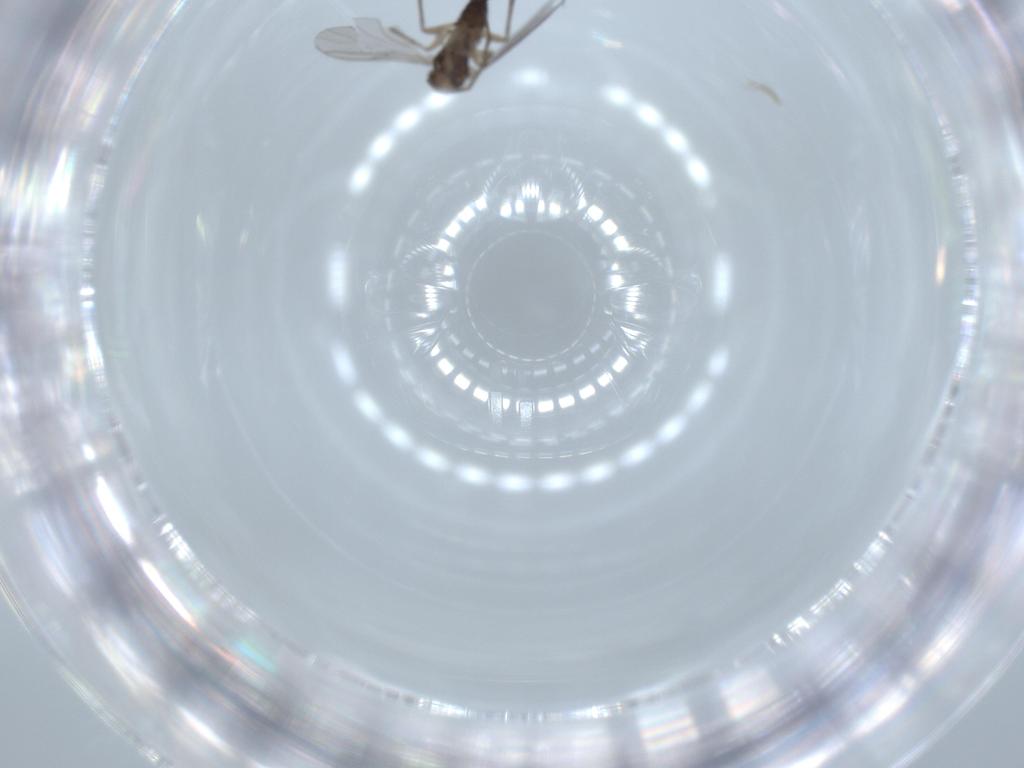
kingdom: Animalia
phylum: Arthropoda
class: Insecta
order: Diptera
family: Sciaridae
